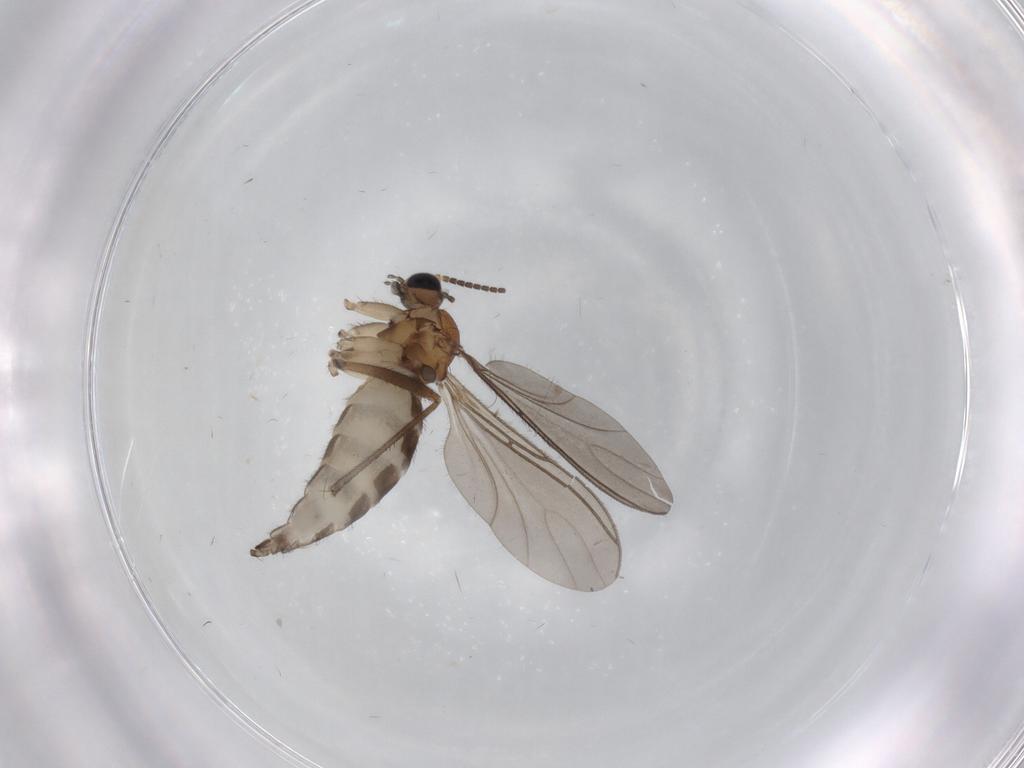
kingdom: Animalia
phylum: Arthropoda
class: Insecta
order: Diptera
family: Sciaridae
